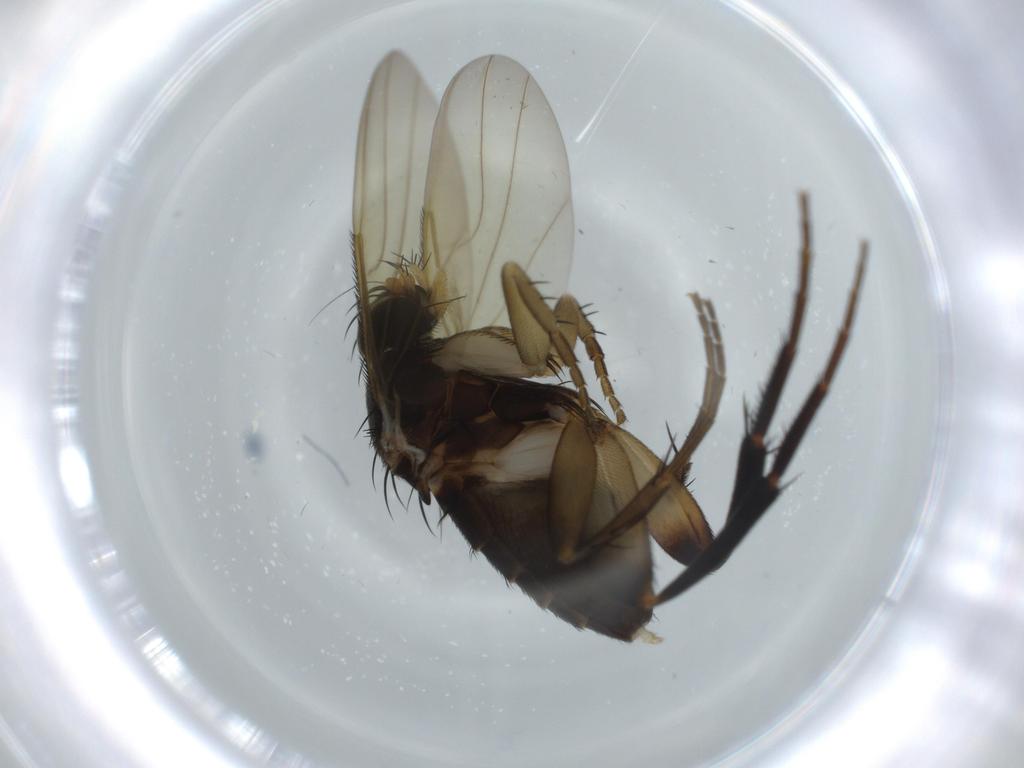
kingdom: Animalia
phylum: Arthropoda
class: Insecta
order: Diptera
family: Phoridae
